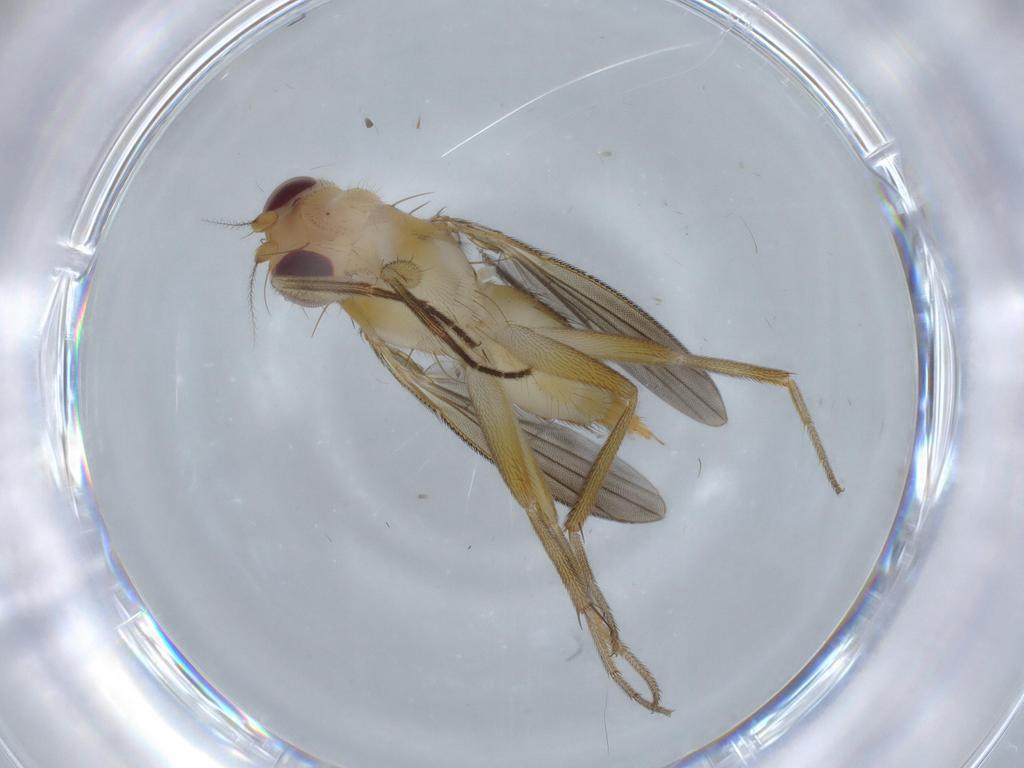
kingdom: Animalia
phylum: Arthropoda
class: Insecta
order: Diptera
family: Agromyzidae
